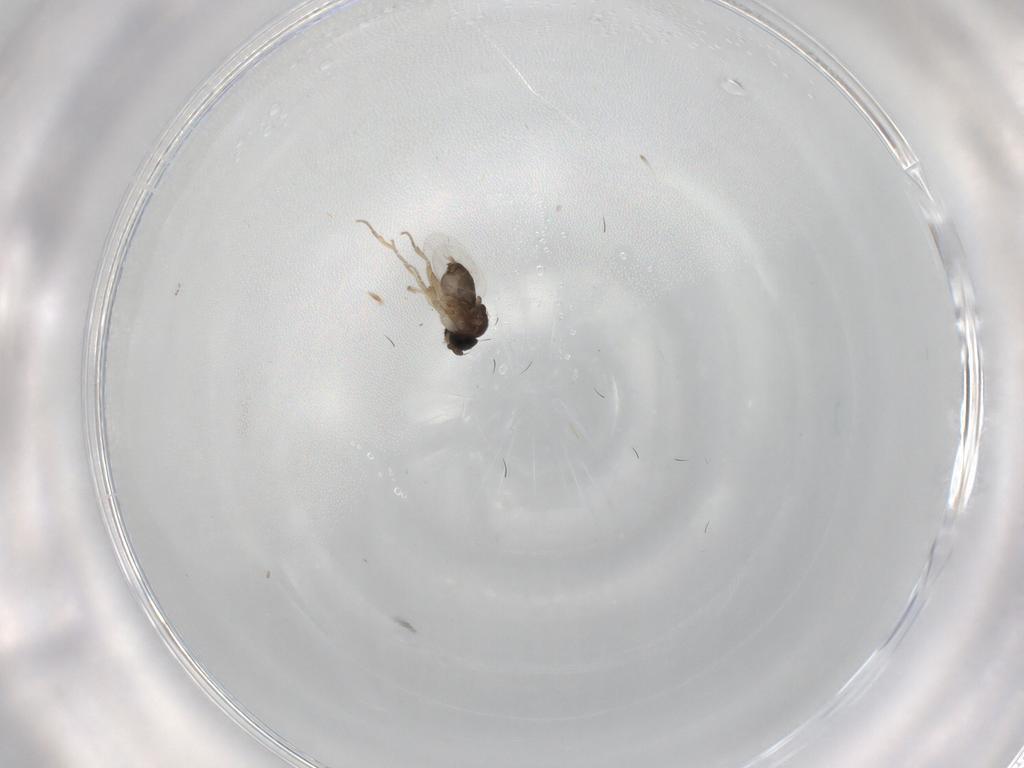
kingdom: Animalia
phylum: Arthropoda
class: Insecta
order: Diptera
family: Phoridae
